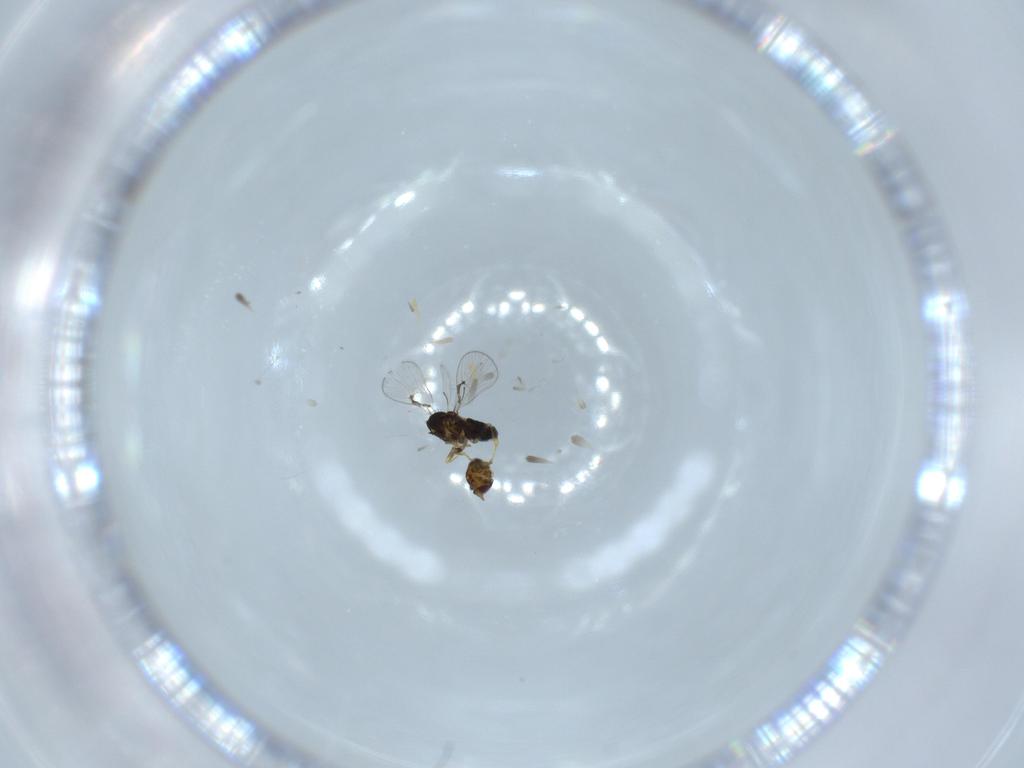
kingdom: Animalia
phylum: Arthropoda
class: Insecta
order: Hymenoptera
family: Trichogrammatidae
